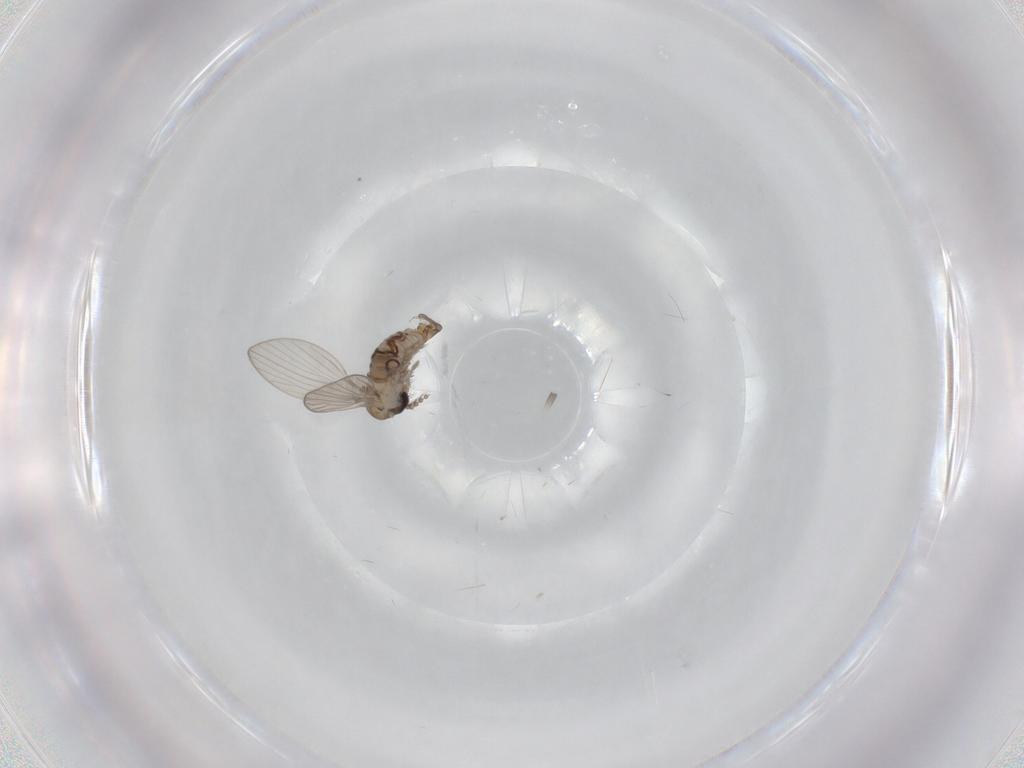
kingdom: Animalia
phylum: Arthropoda
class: Insecta
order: Diptera
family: Psychodidae
